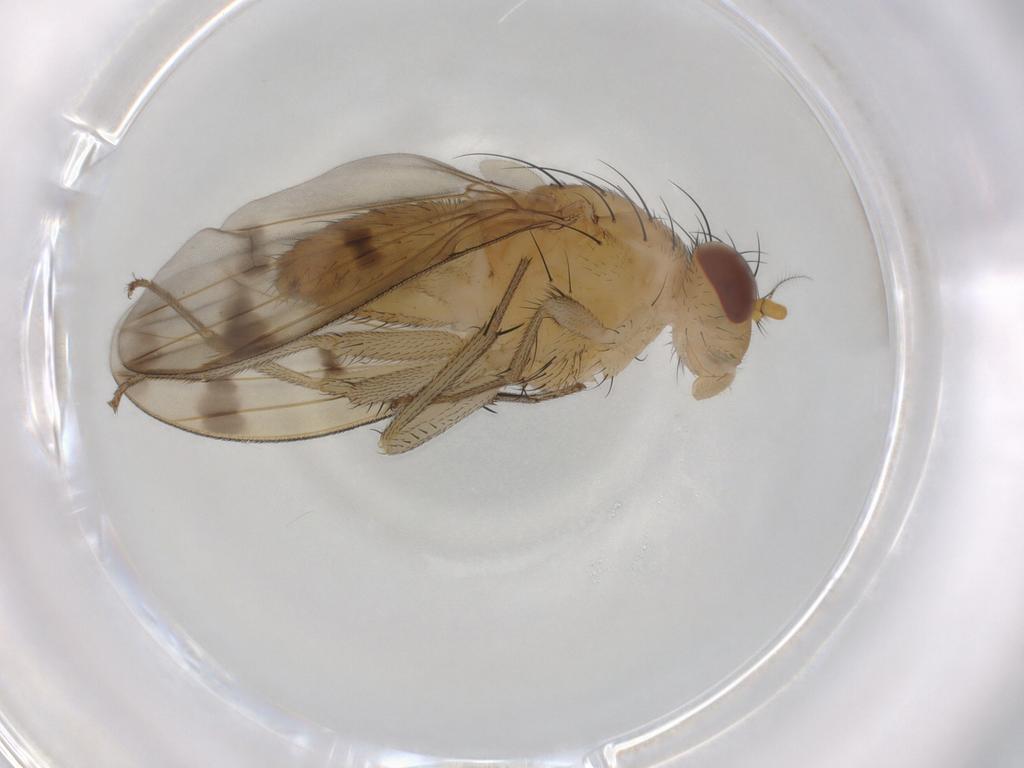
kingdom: Animalia
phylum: Arthropoda
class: Insecta
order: Diptera
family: Lauxaniidae
